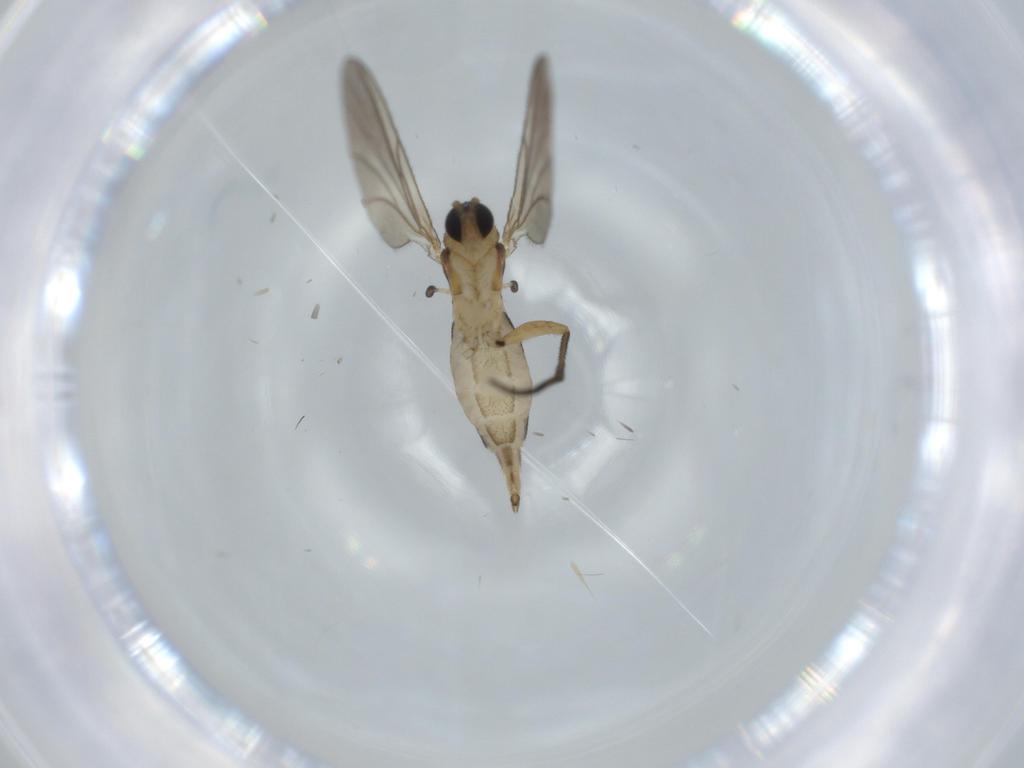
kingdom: Animalia
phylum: Arthropoda
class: Insecta
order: Diptera
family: Sciaridae
